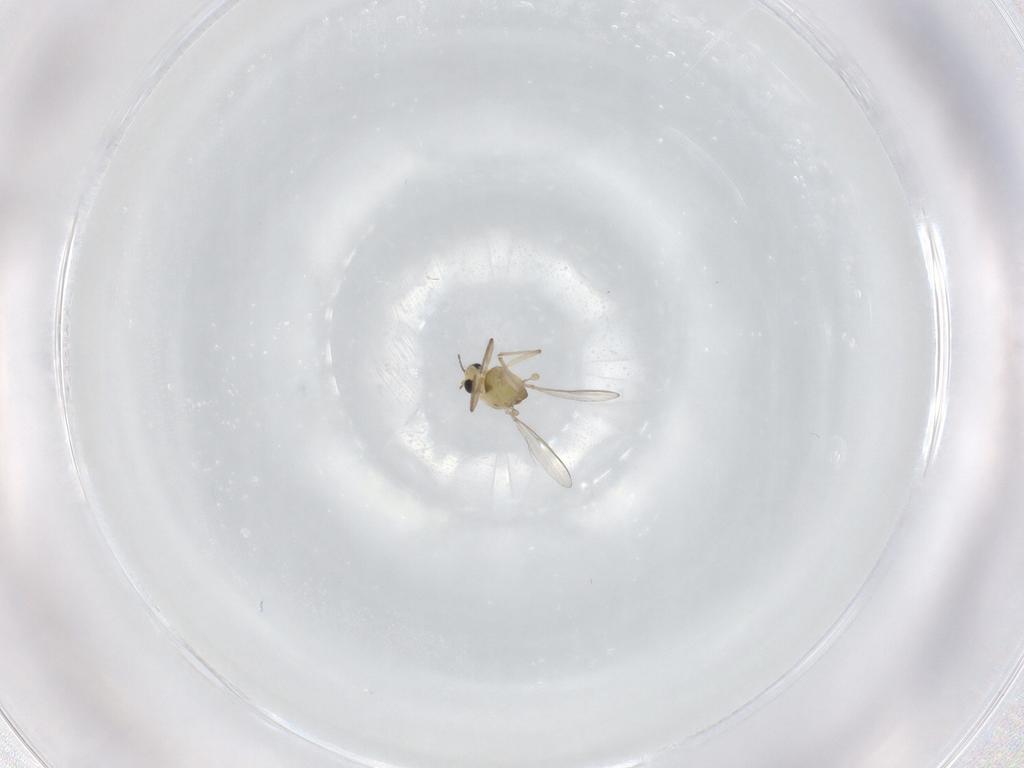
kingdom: Animalia
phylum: Arthropoda
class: Insecta
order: Diptera
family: Chironomidae
